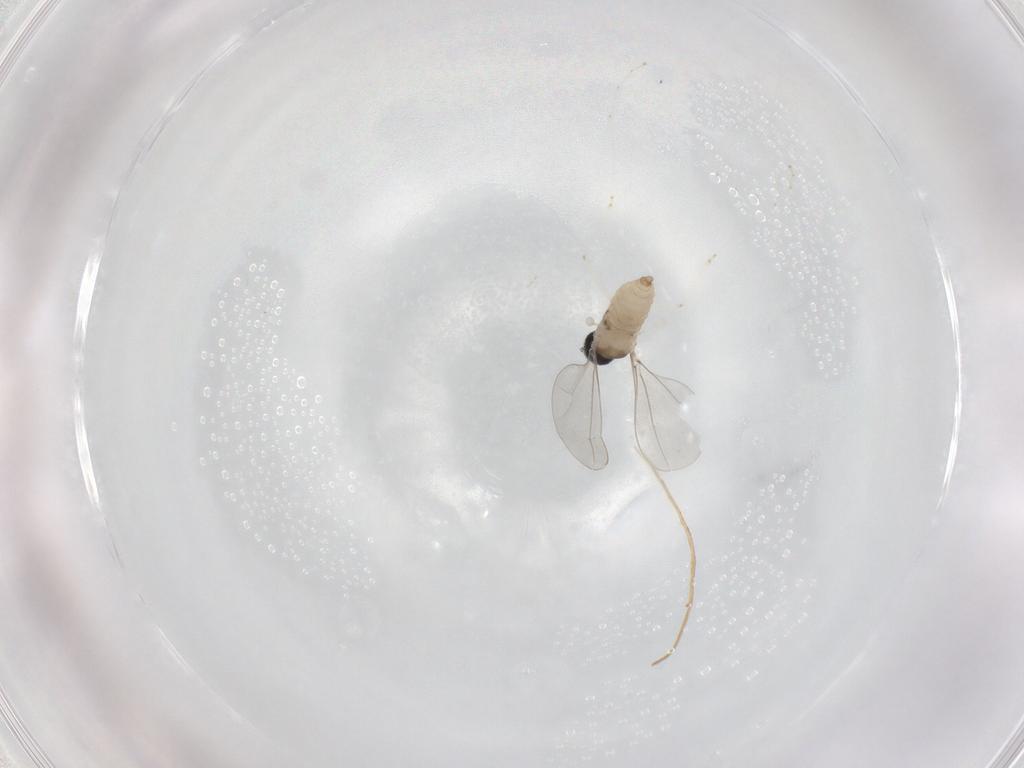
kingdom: Animalia
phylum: Arthropoda
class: Insecta
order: Diptera
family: Cecidomyiidae
